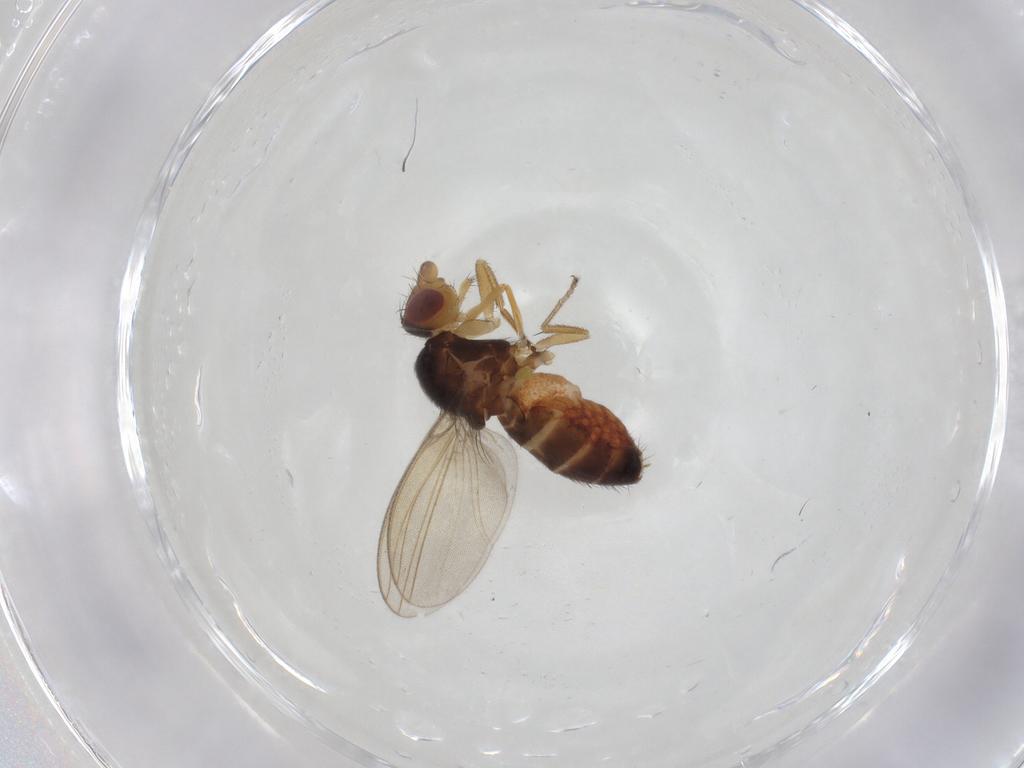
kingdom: Animalia
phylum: Arthropoda
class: Insecta
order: Diptera
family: Milichiidae
